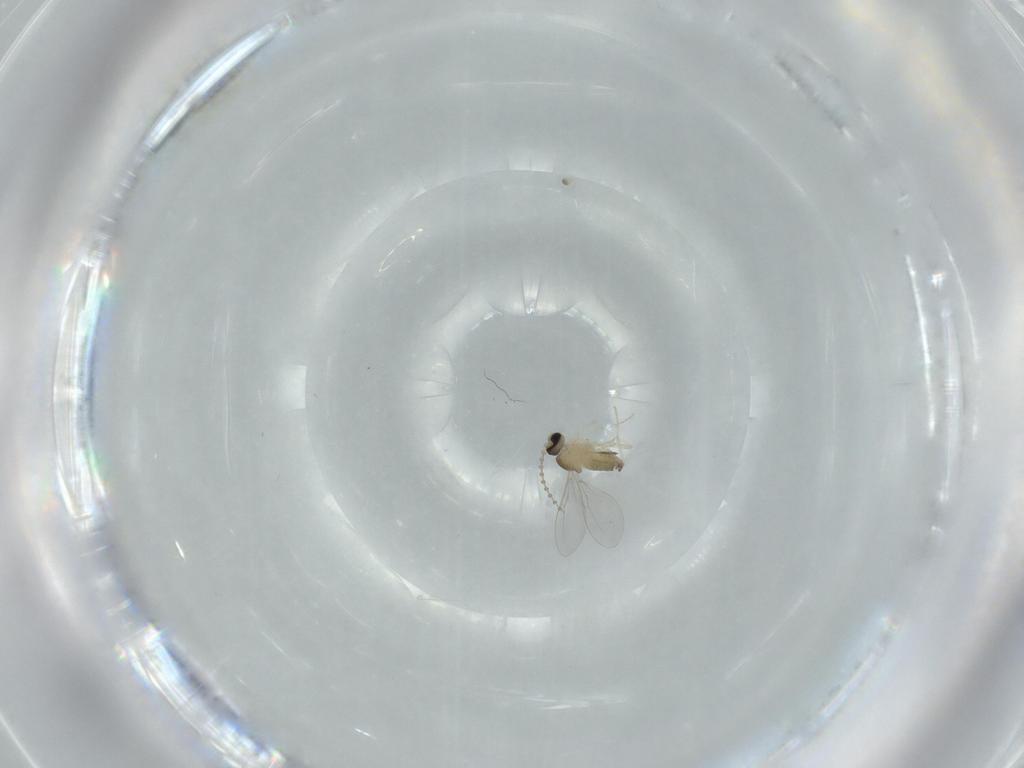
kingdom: Animalia
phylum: Arthropoda
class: Insecta
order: Diptera
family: Cecidomyiidae
